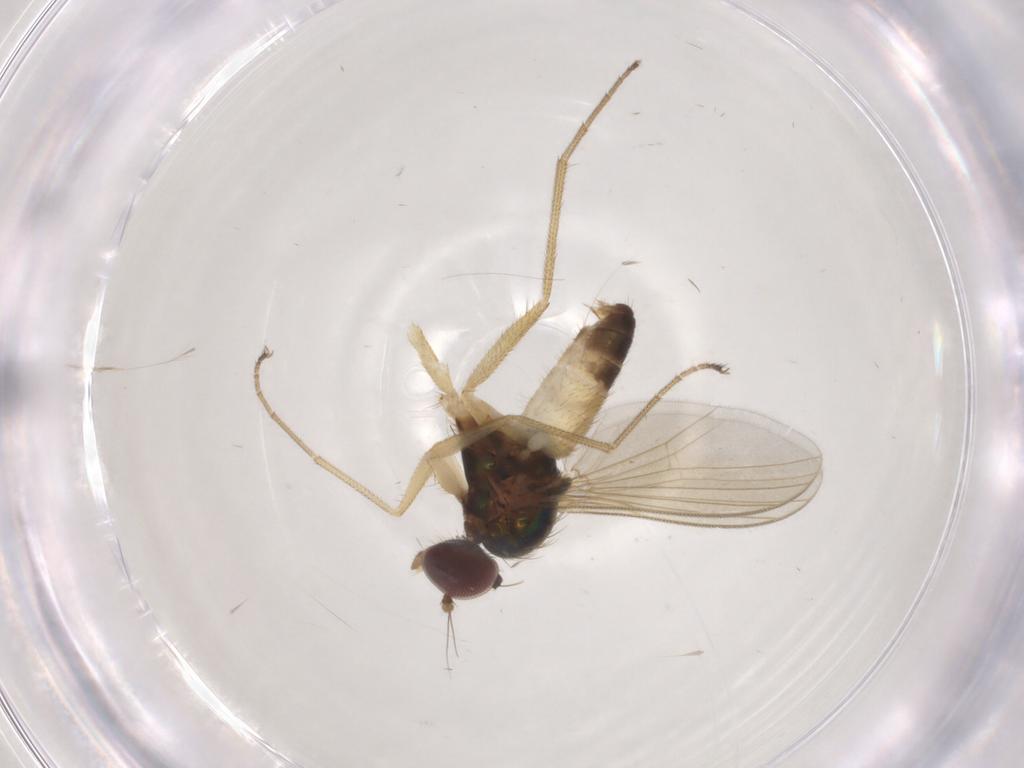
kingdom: Animalia
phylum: Arthropoda
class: Insecta
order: Diptera
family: Dolichopodidae
